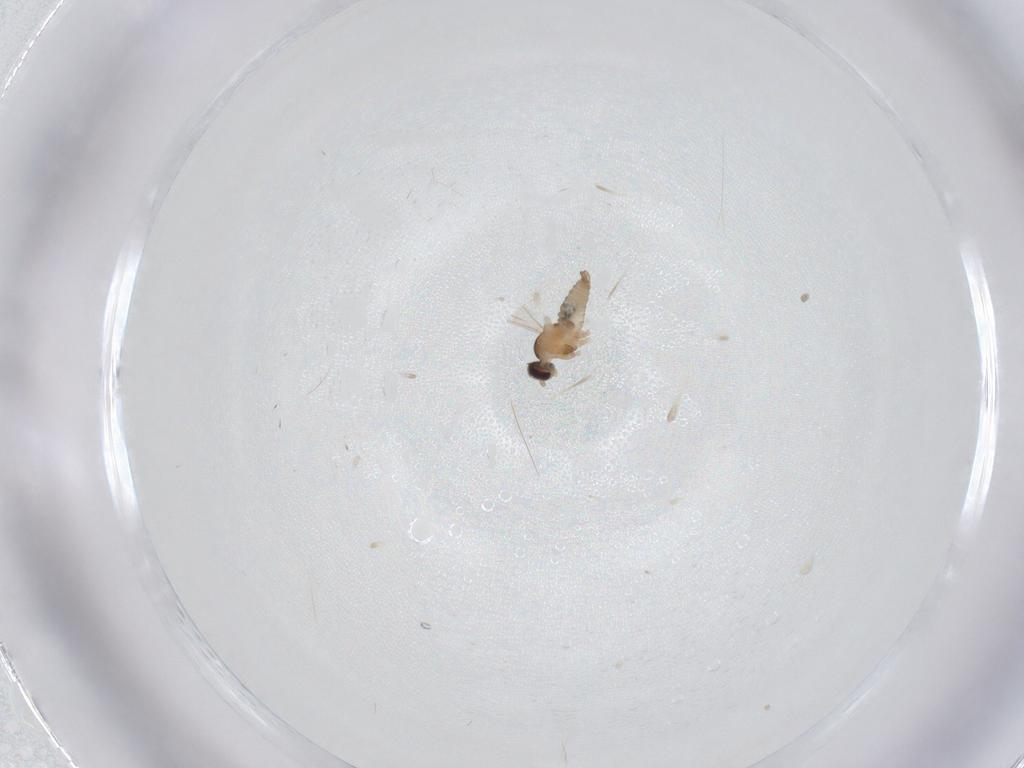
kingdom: Animalia
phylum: Arthropoda
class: Insecta
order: Diptera
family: Cecidomyiidae
